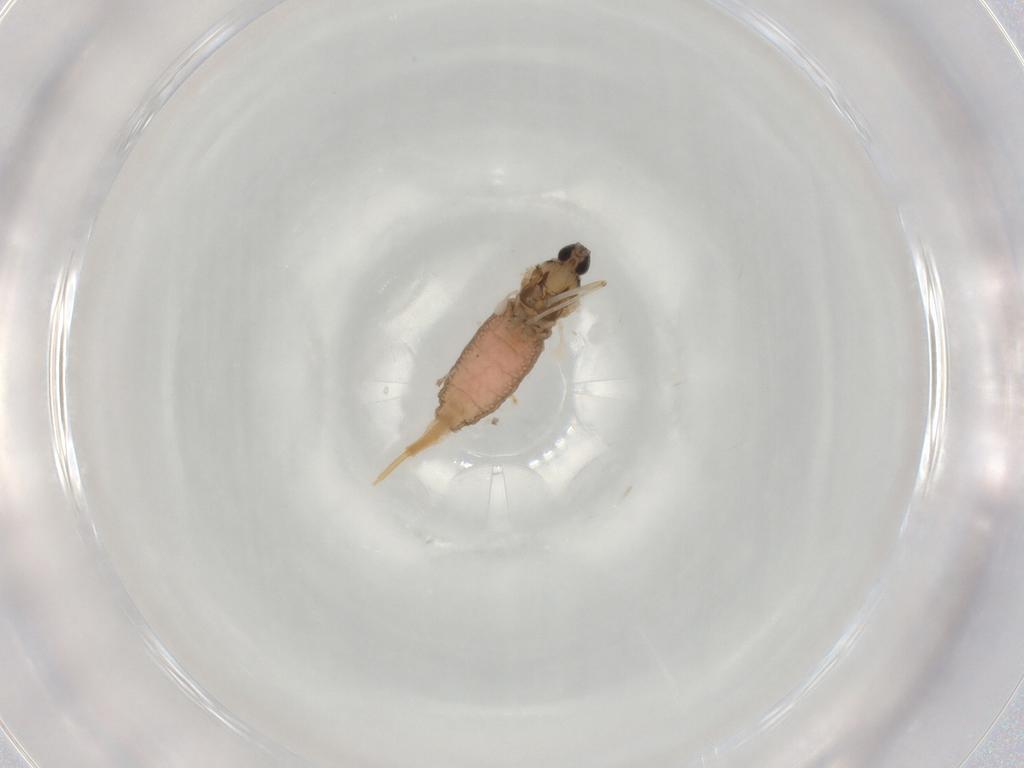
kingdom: Animalia
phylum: Arthropoda
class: Insecta
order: Diptera
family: Cecidomyiidae
